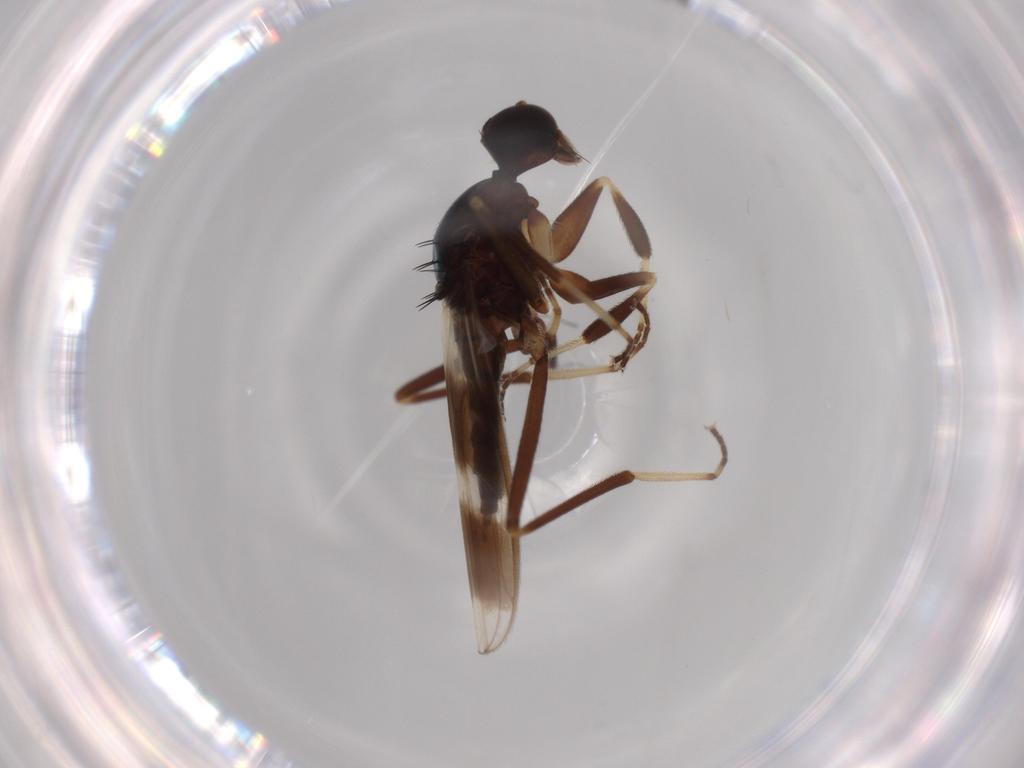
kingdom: Animalia
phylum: Arthropoda
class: Insecta
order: Diptera
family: Hybotidae
